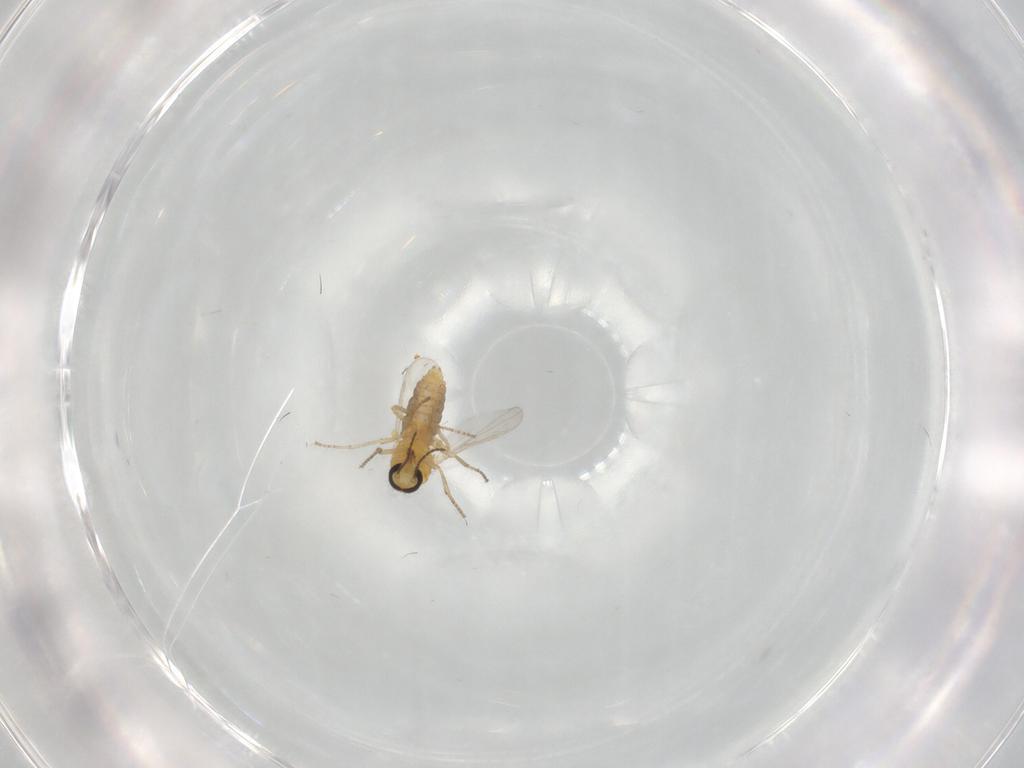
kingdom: Animalia
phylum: Arthropoda
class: Insecta
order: Diptera
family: Ceratopogonidae
